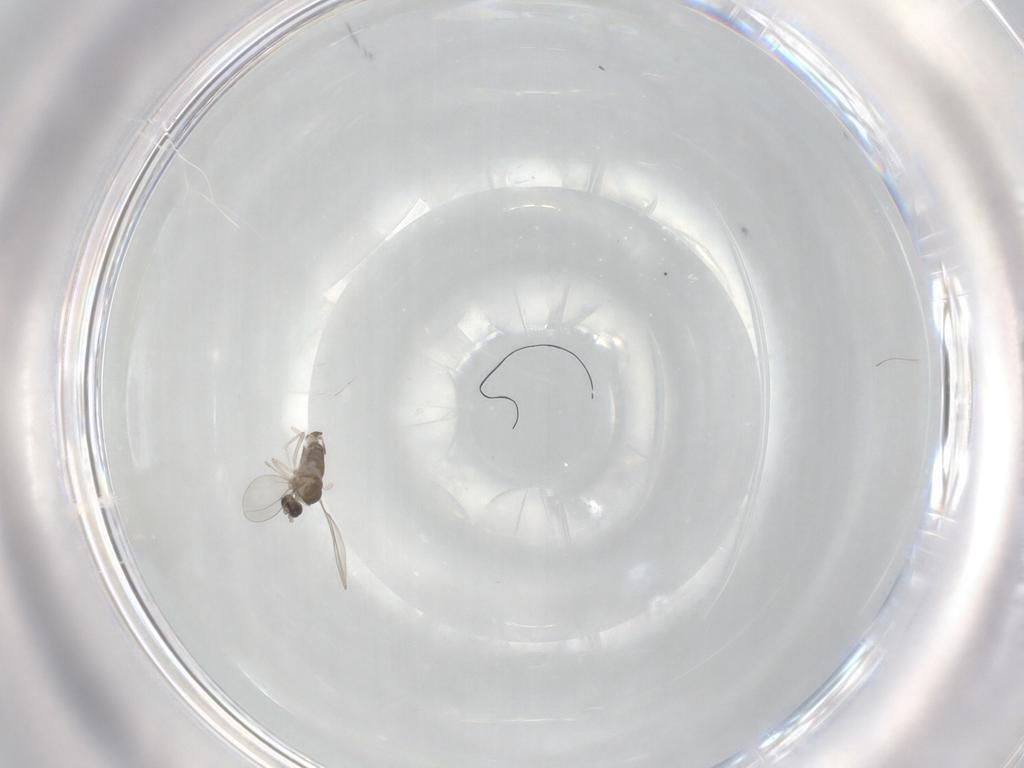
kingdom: Animalia
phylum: Arthropoda
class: Insecta
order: Diptera
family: Cecidomyiidae
